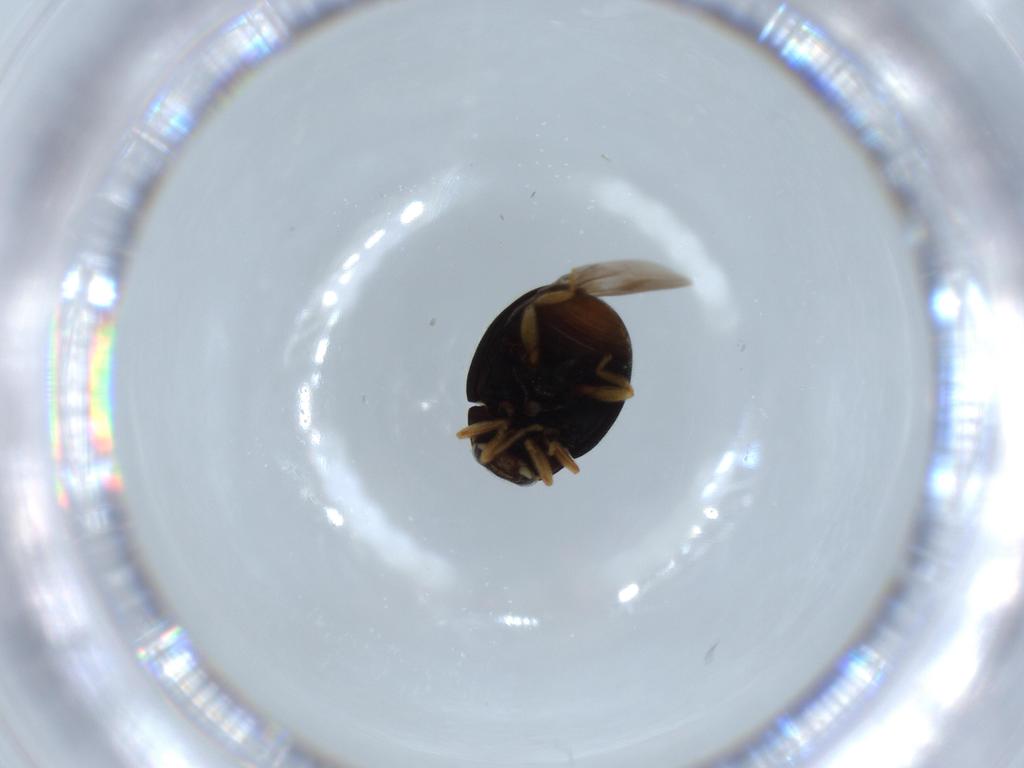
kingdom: Animalia
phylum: Arthropoda
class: Insecta
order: Coleoptera
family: Coccinellidae
